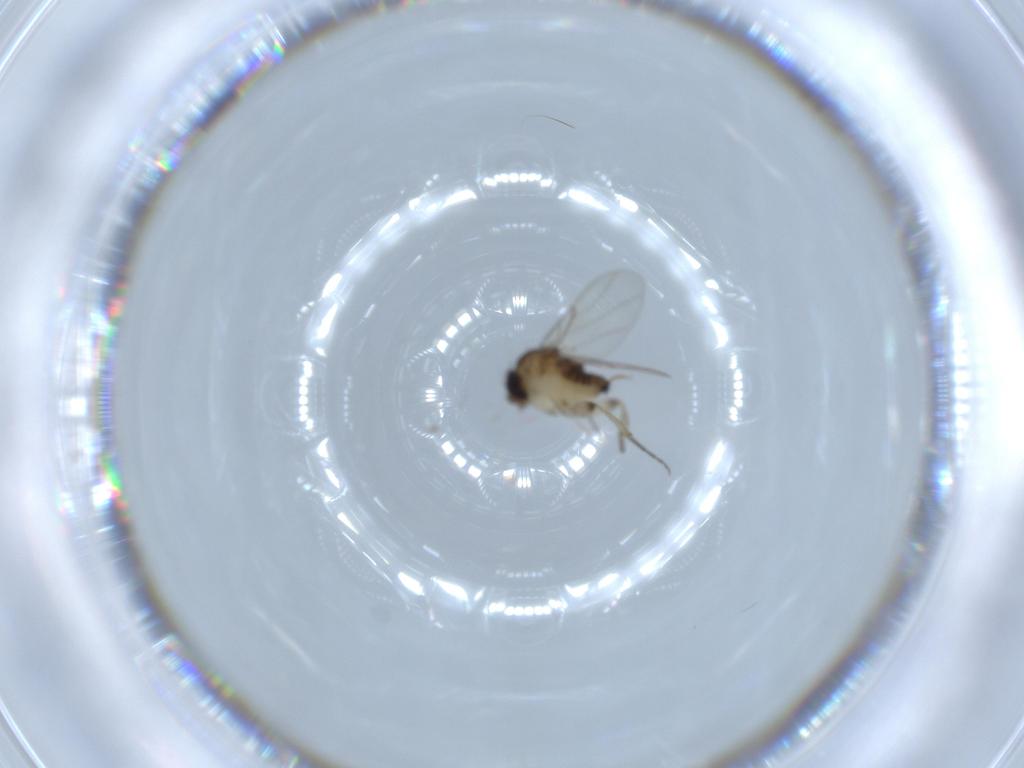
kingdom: Animalia
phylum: Arthropoda
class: Insecta
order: Diptera
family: Phoridae
